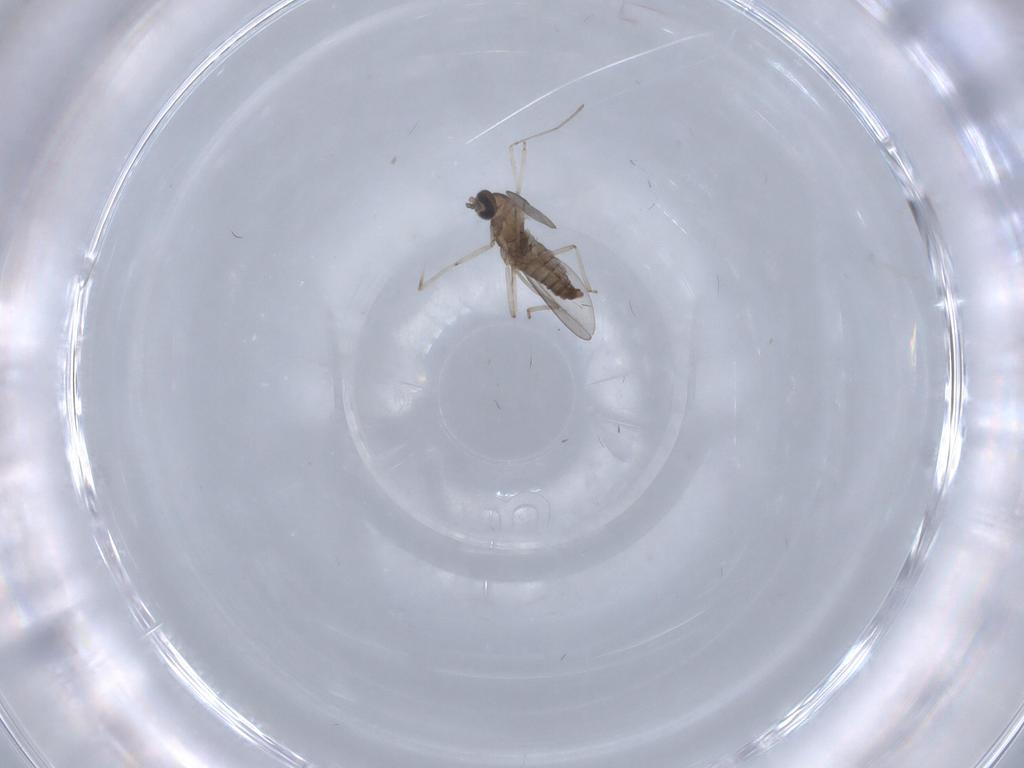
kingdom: Animalia
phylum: Arthropoda
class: Insecta
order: Diptera
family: Cecidomyiidae
